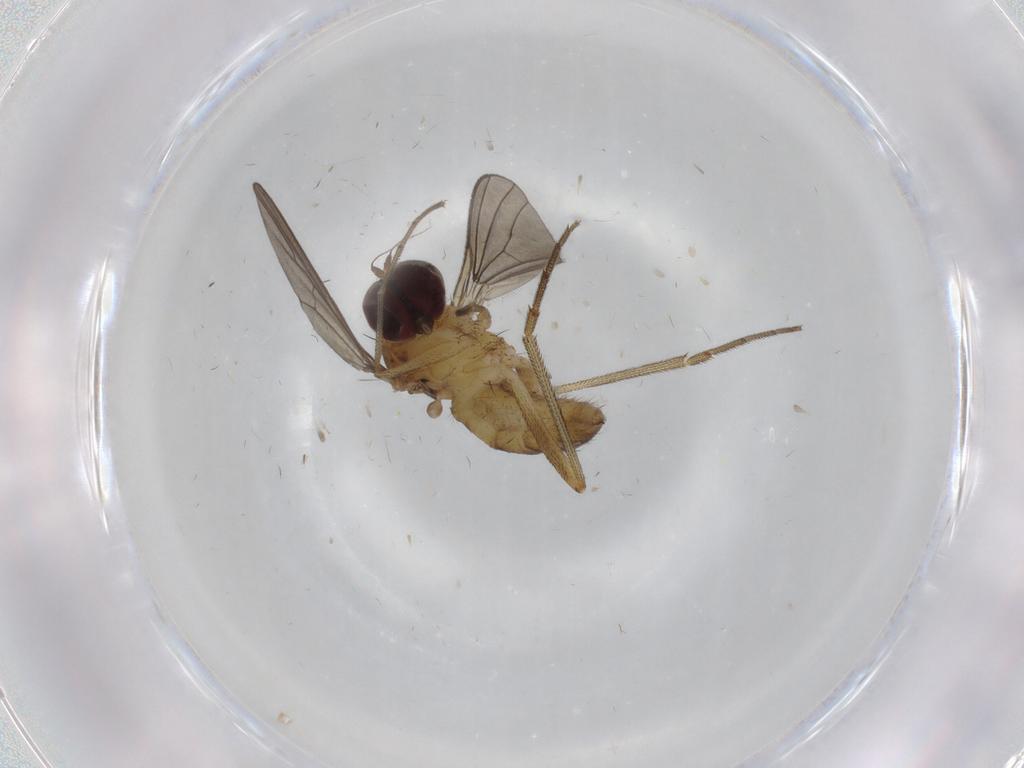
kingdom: Animalia
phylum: Arthropoda
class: Insecta
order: Diptera
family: Dolichopodidae
